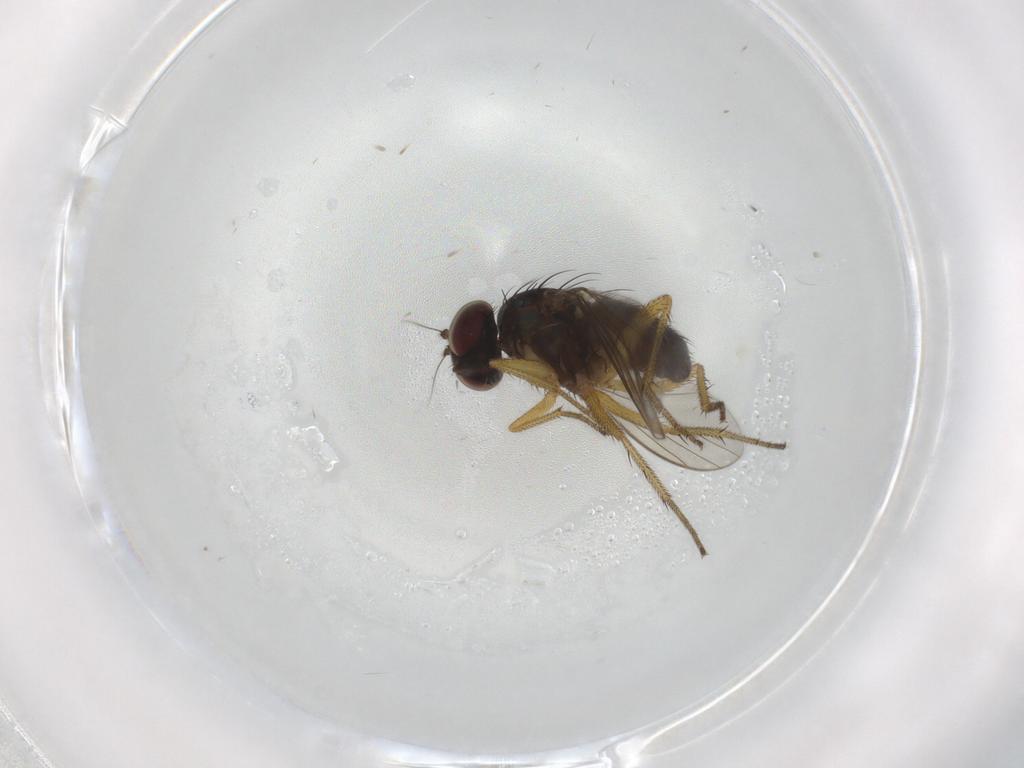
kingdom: Animalia
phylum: Arthropoda
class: Insecta
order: Diptera
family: Dolichopodidae
